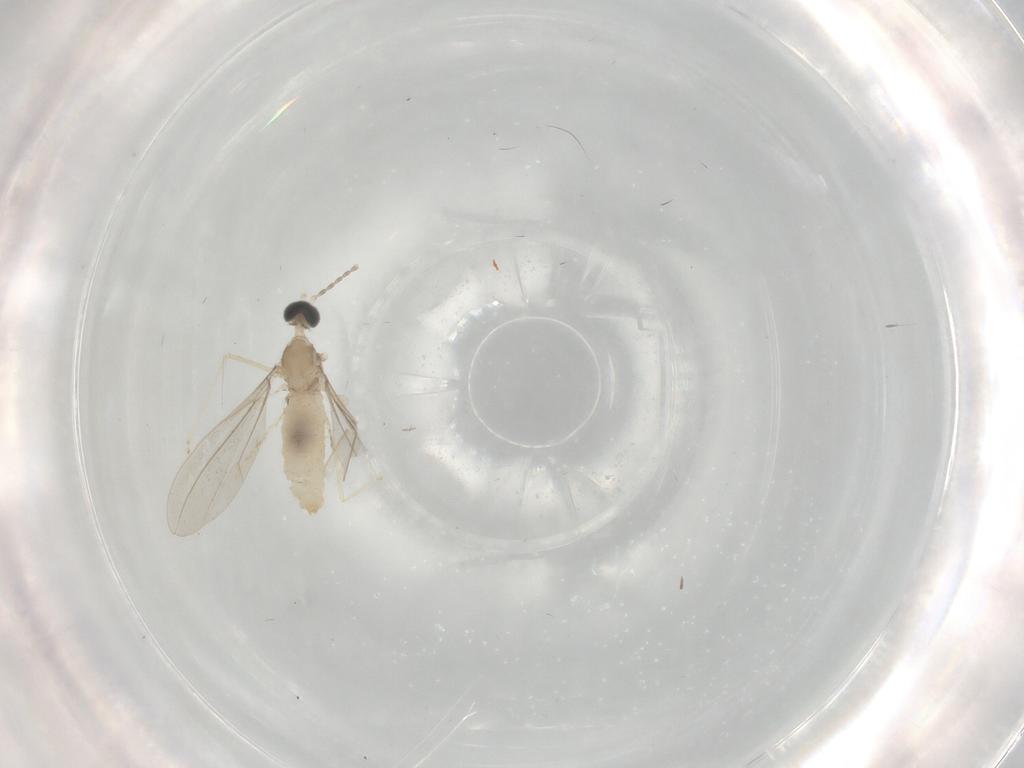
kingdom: Animalia
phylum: Arthropoda
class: Insecta
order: Diptera
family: Cecidomyiidae
